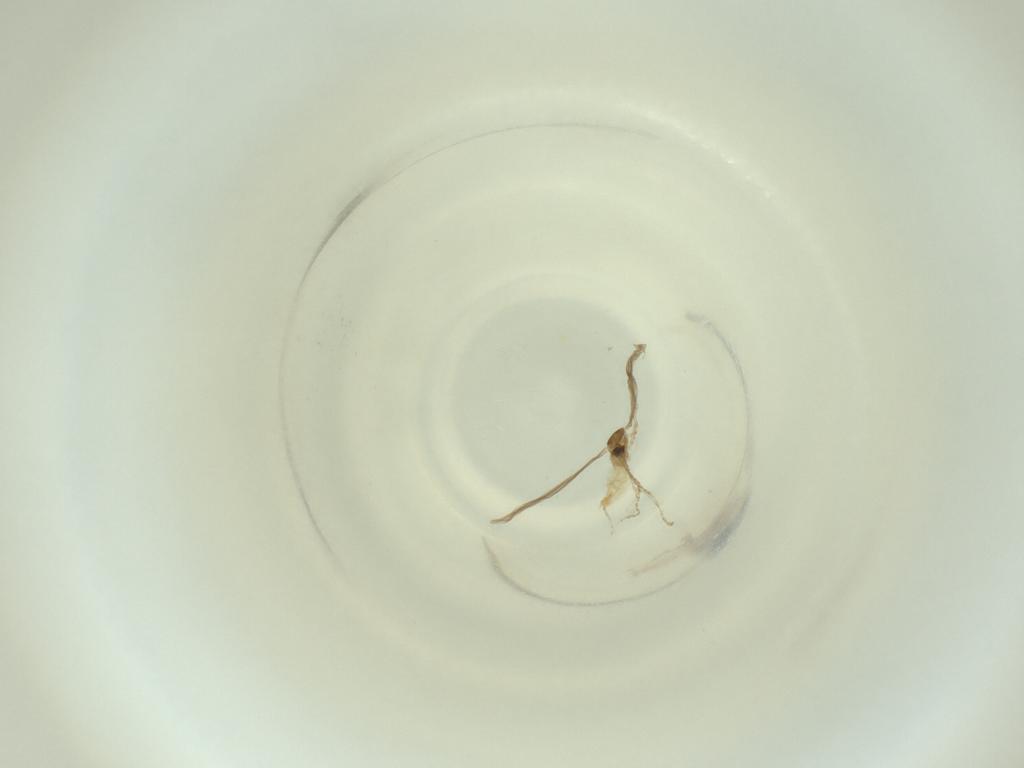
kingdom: Animalia
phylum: Arthropoda
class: Insecta
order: Diptera
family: Cecidomyiidae
